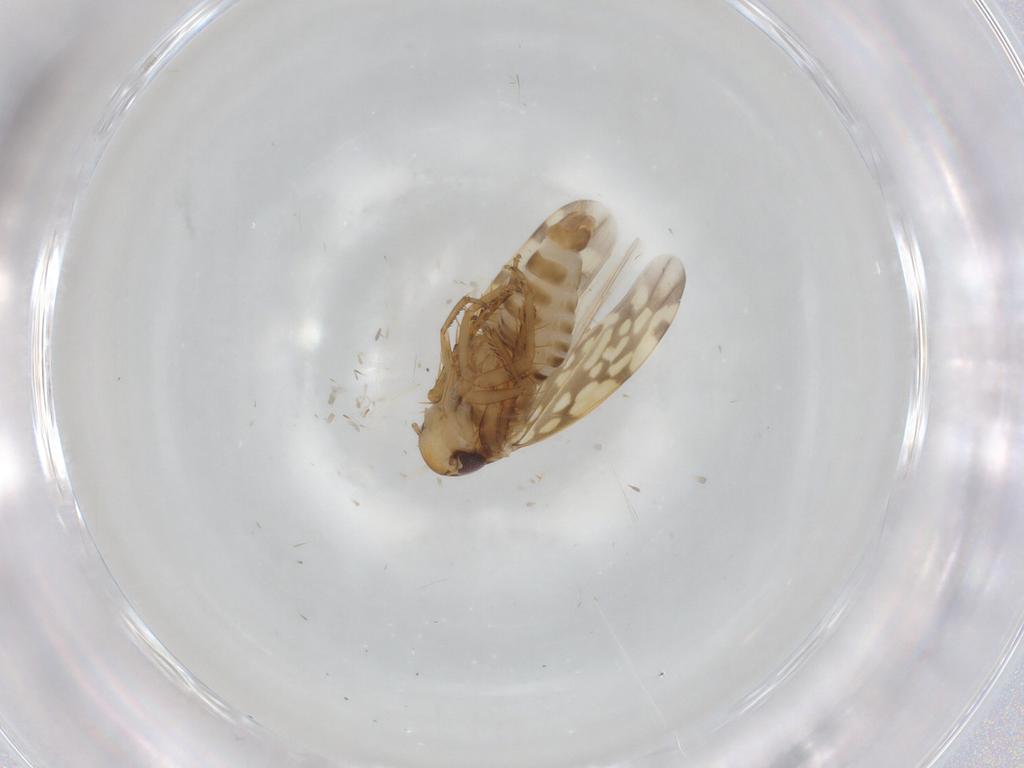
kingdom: Animalia
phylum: Arthropoda
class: Insecta
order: Hemiptera
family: Cicadellidae
